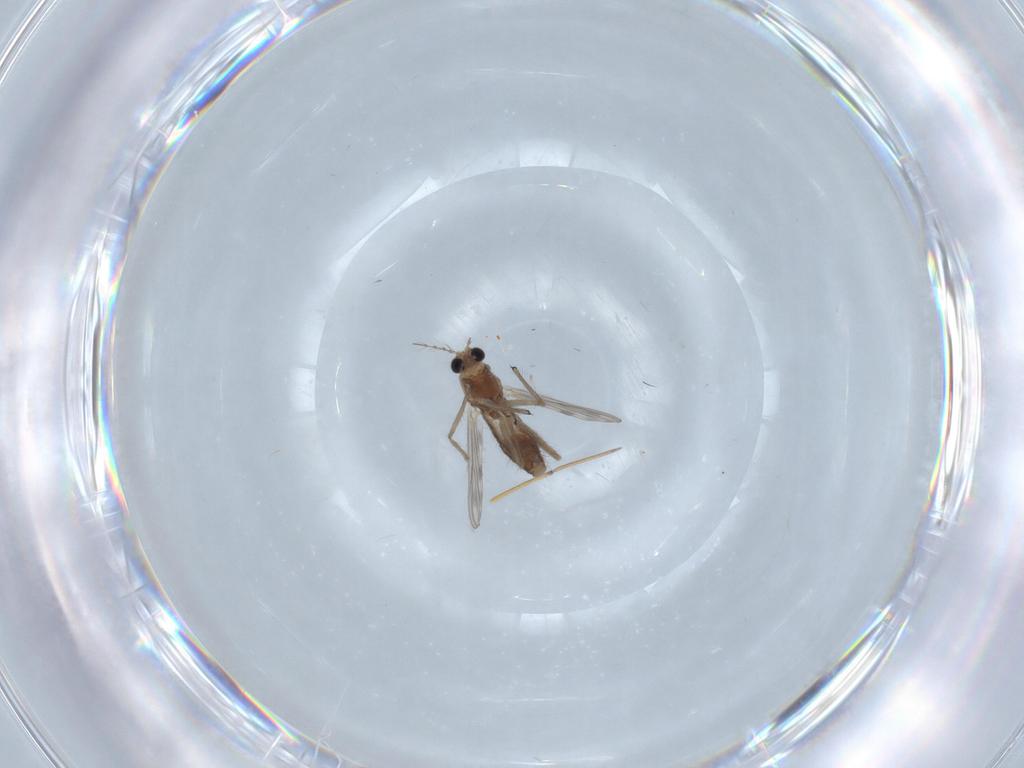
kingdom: Animalia
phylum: Arthropoda
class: Insecta
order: Diptera
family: Chironomidae
